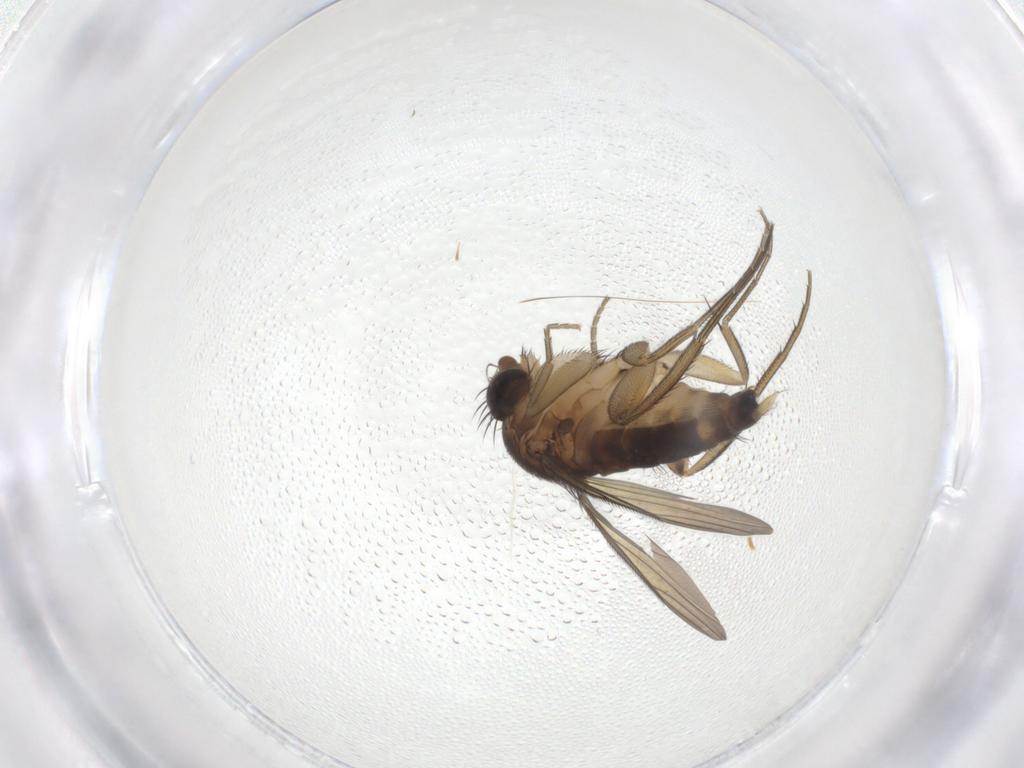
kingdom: Animalia
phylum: Arthropoda
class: Insecta
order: Diptera
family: Phoridae
